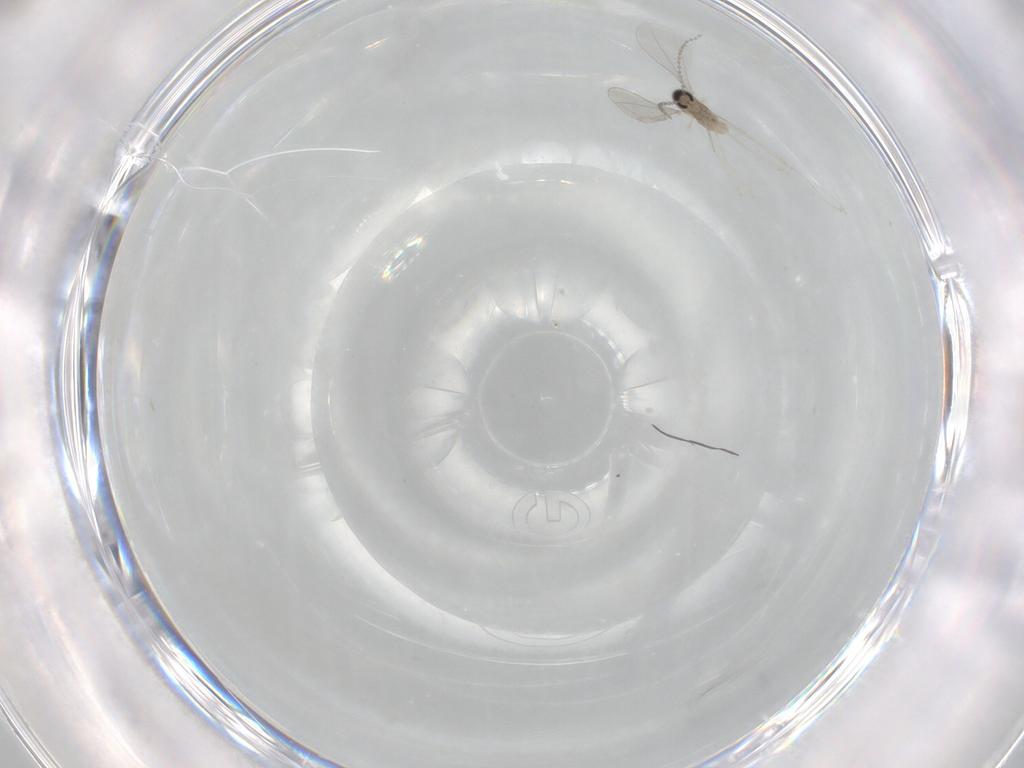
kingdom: Animalia
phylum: Arthropoda
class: Insecta
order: Diptera
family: Cecidomyiidae
